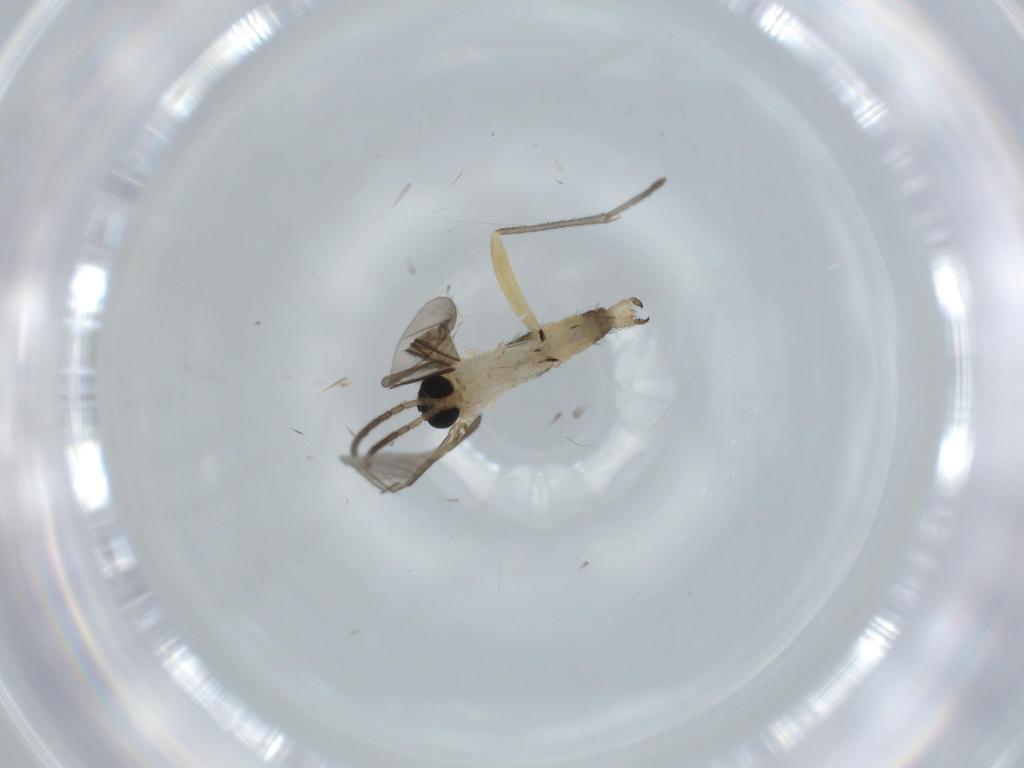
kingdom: Animalia
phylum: Arthropoda
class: Insecta
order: Diptera
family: Sciaridae
